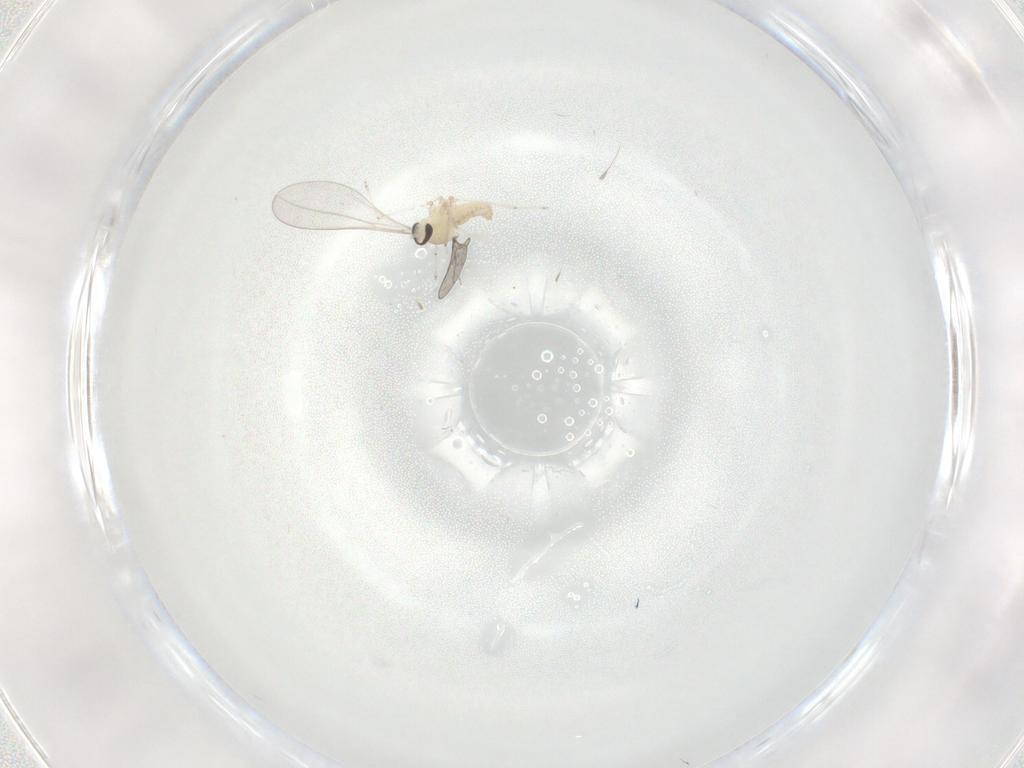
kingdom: Animalia
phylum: Arthropoda
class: Insecta
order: Diptera
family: Cecidomyiidae
